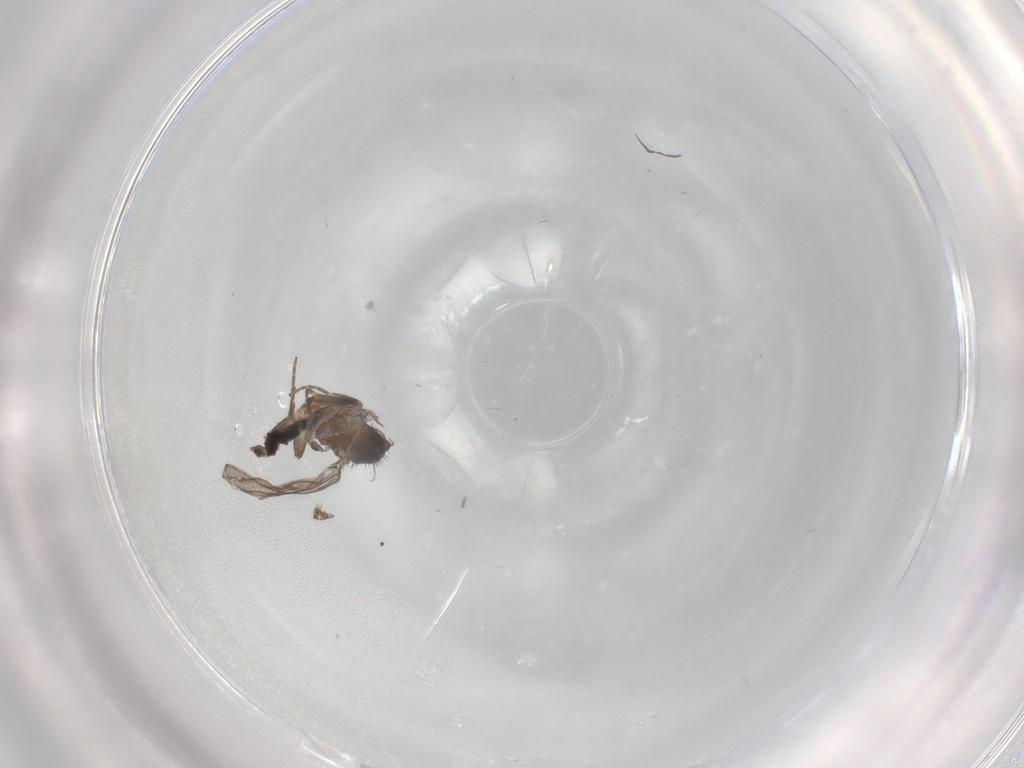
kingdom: Animalia
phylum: Arthropoda
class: Insecta
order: Diptera
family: Chironomidae
